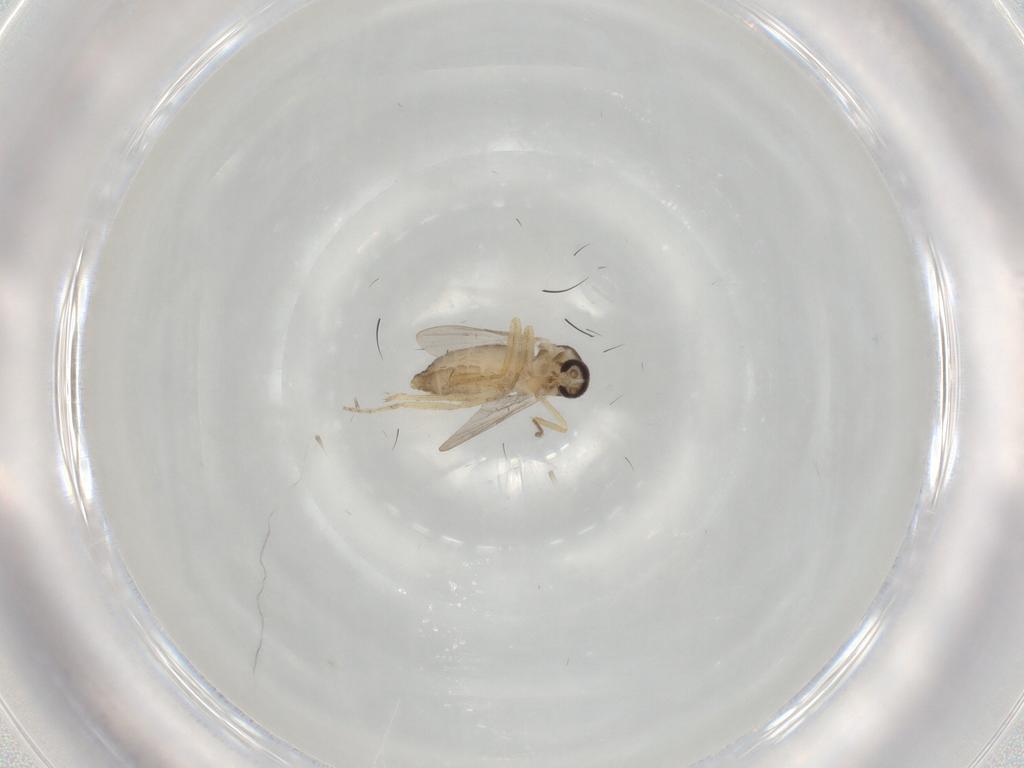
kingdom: Animalia
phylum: Arthropoda
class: Insecta
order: Diptera
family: Ceratopogonidae
